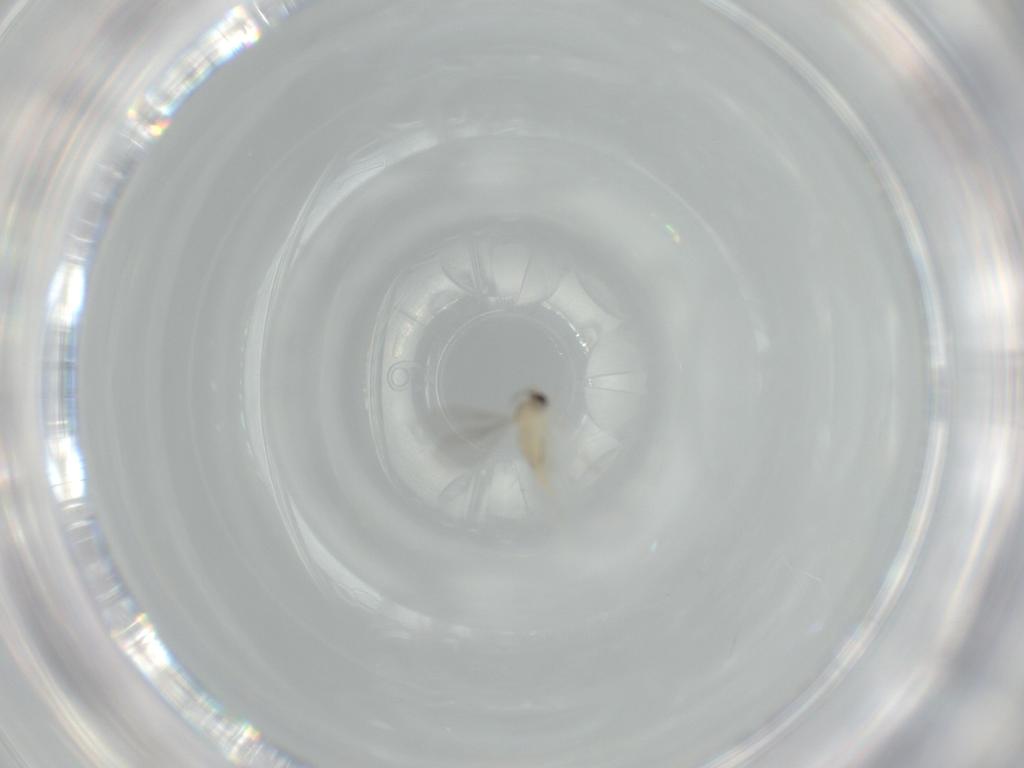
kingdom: Animalia
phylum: Arthropoda
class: Insecta
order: Diptera
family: Cecidomyiidae
